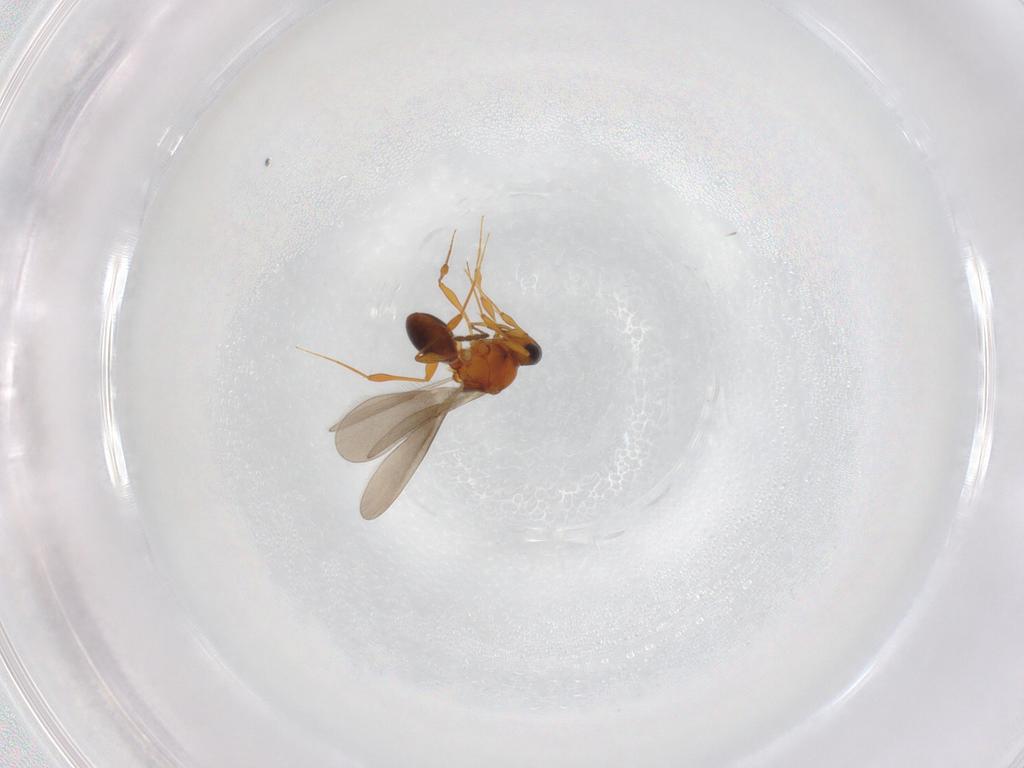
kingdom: Animalia
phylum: Arthropoda
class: Insecta
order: Hymenoptera
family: Platygastridae
